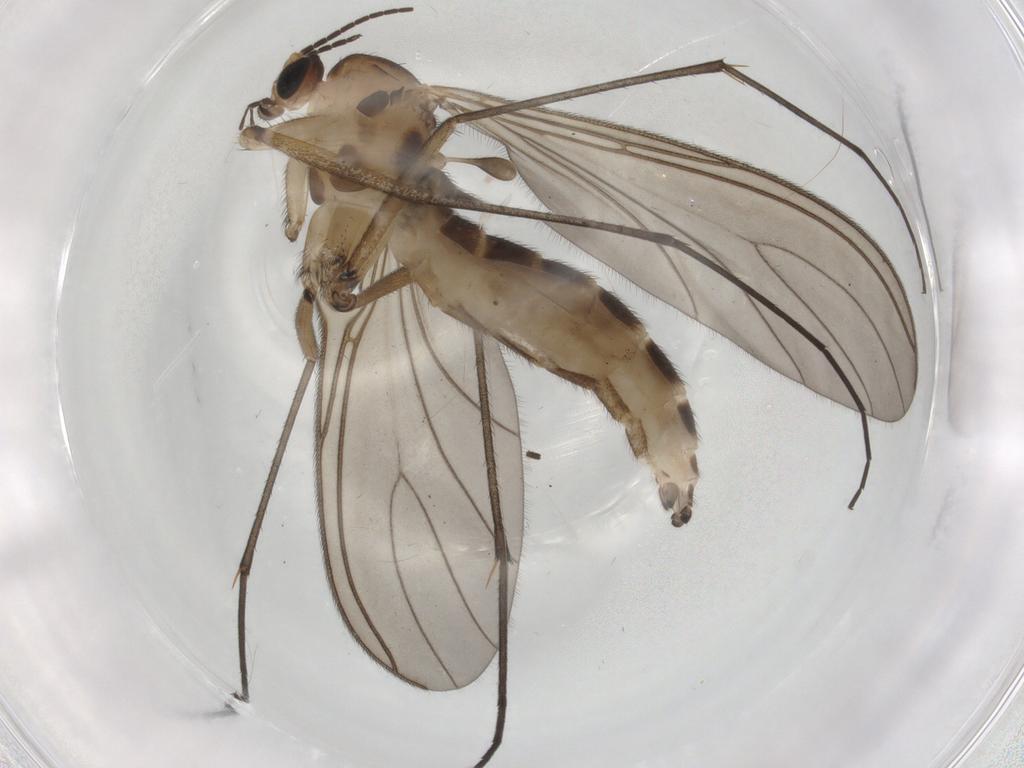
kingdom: Animalia
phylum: Arthropoda
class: Insecta
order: Diptera
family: Sciaridae
